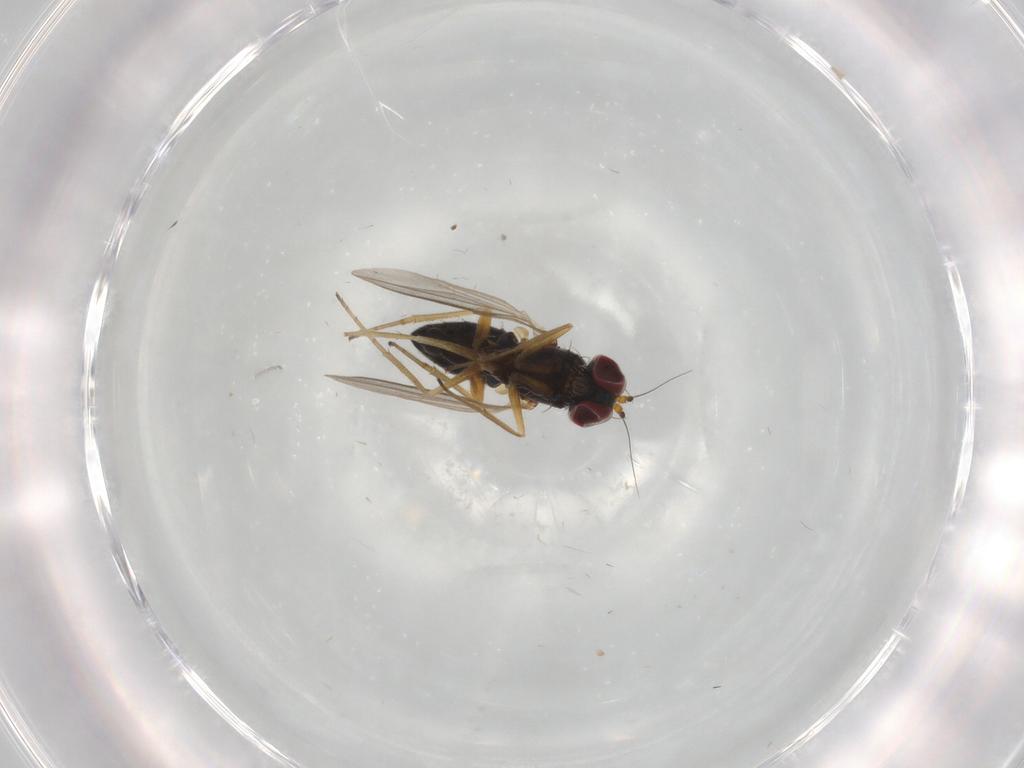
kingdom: Animalia
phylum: Arthropoda
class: Insecta
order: Diptera
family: Dolichopodidae
